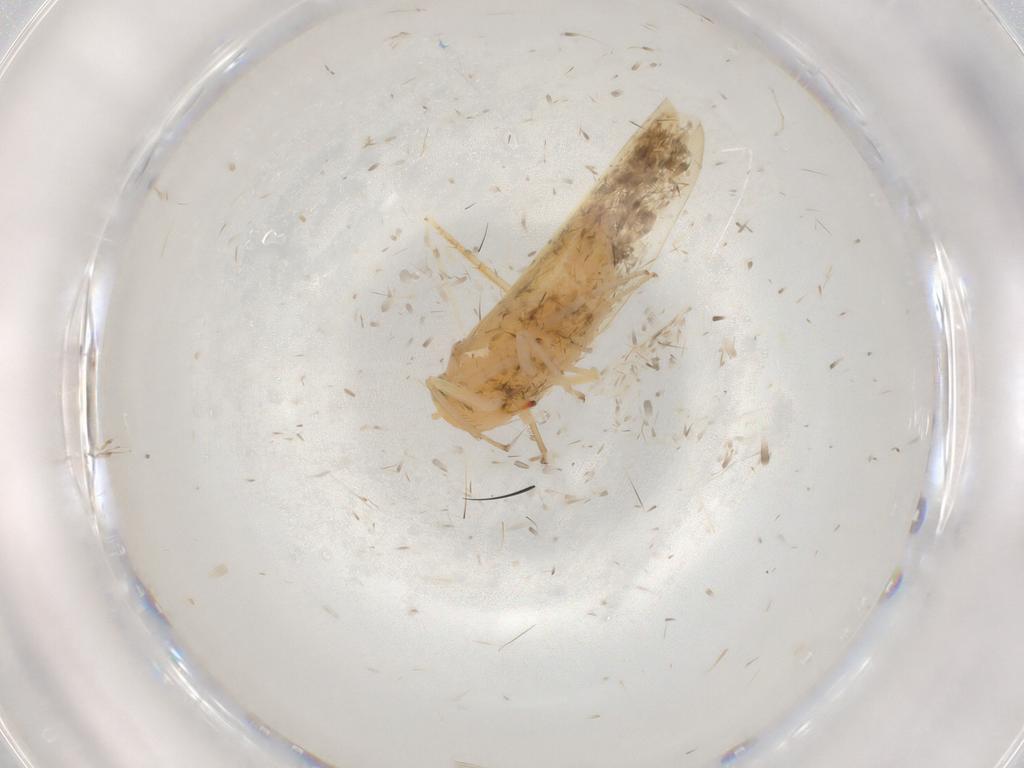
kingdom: Animalia
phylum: Arthropoda
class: Insecta
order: Hemiptera
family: Cicadellidae
